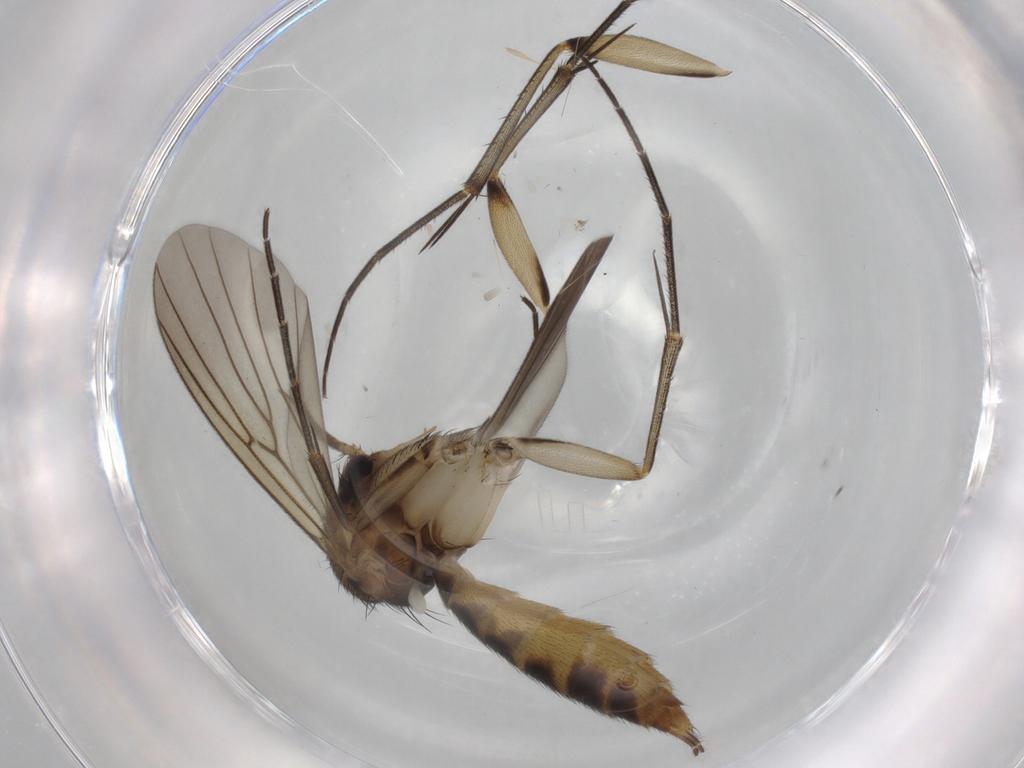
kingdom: Animalia
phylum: Arthropoda
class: Insecta
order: Diptera
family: Mycetophilidae
